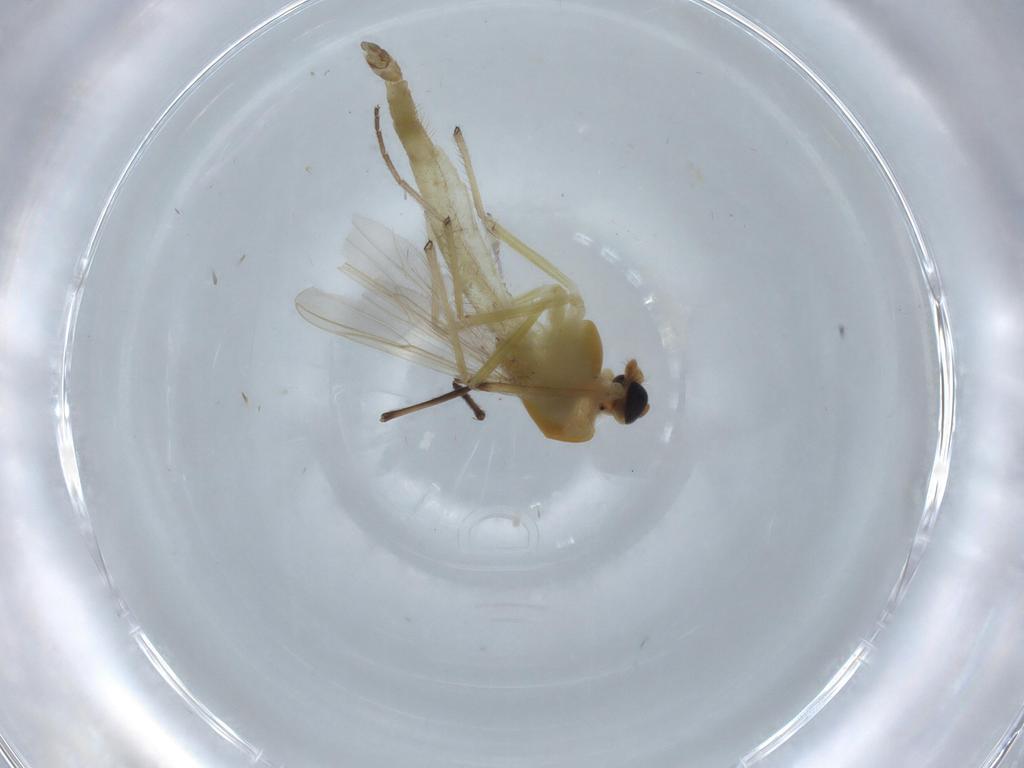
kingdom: Animalia
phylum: Arthropoda
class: Insecta
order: Diptera
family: Chironomidae
